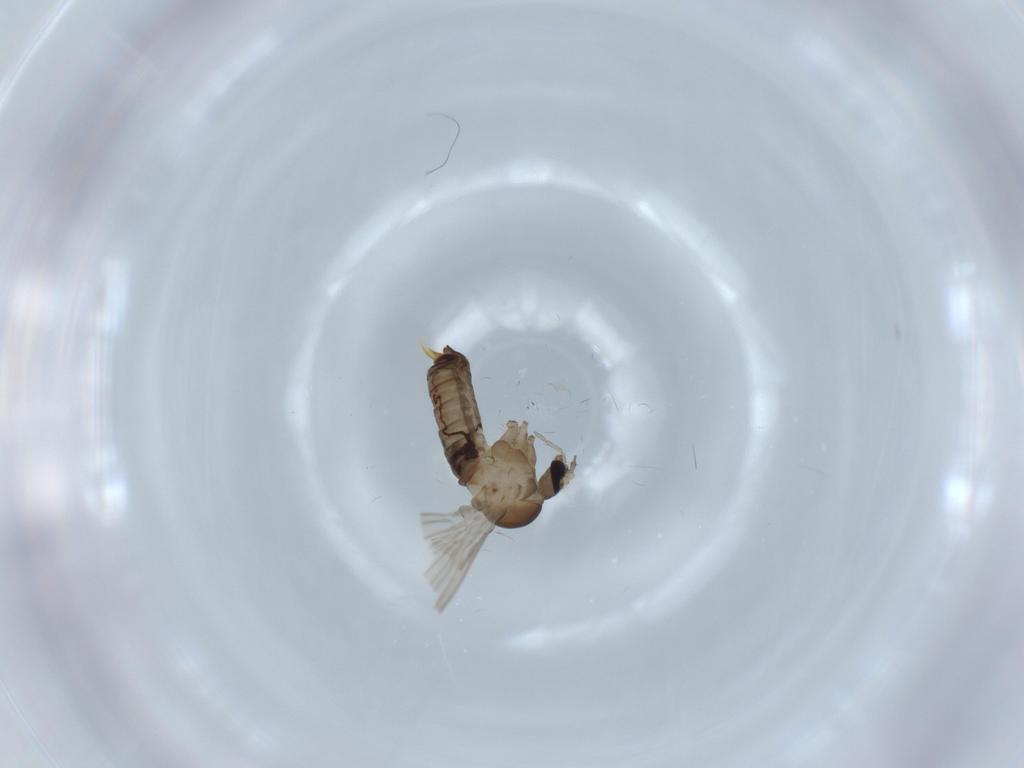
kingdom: Animalia
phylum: Arthropoda
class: Insecta
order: Diptera
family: Psychodidae
